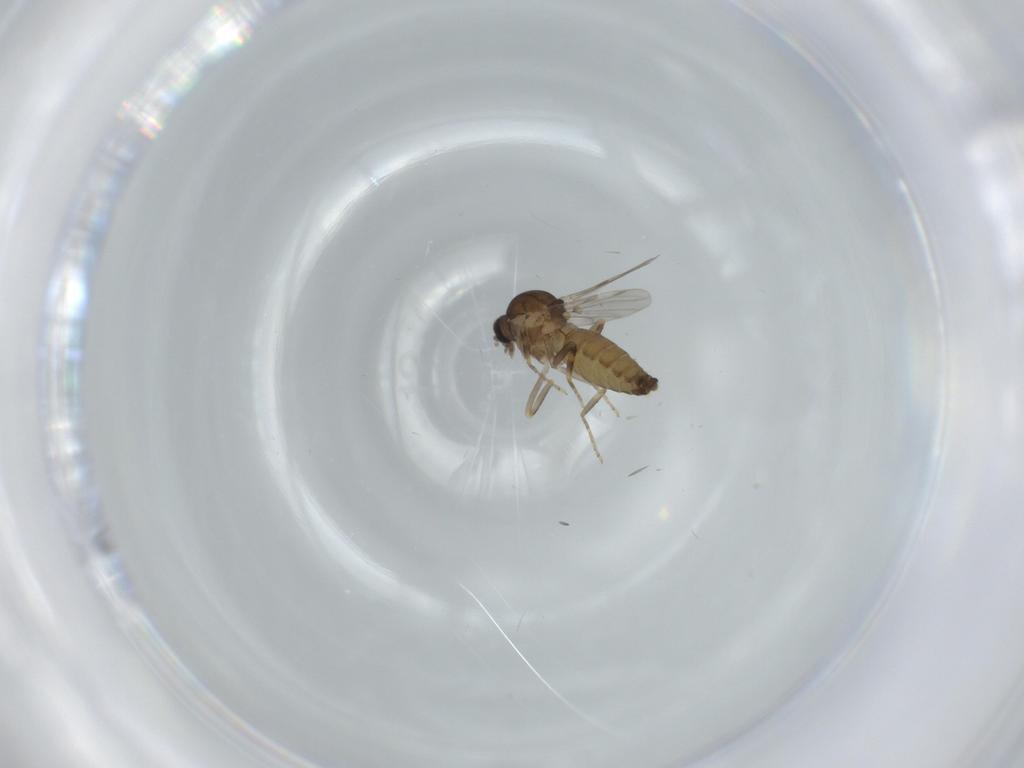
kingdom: Animalia
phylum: Arthropoda
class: Insecta
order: Diptera
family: Ceratopogonidae
